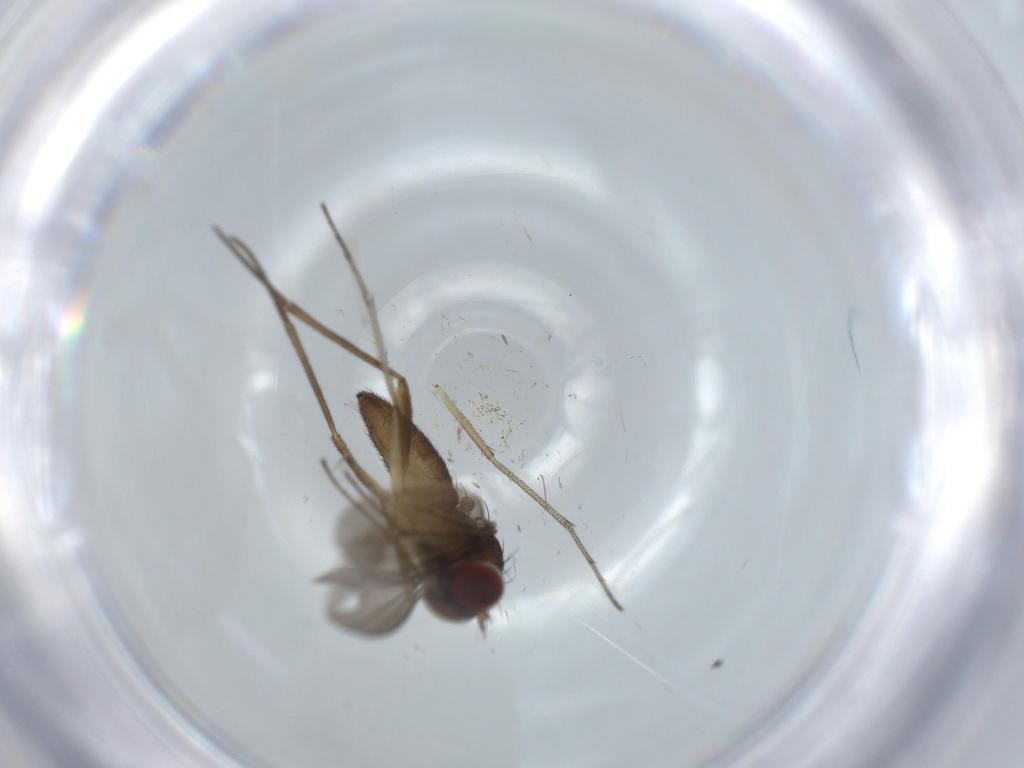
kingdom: Animalia
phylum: Arthropoda
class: Insecta
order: Diptera
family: Dolichopodidae
